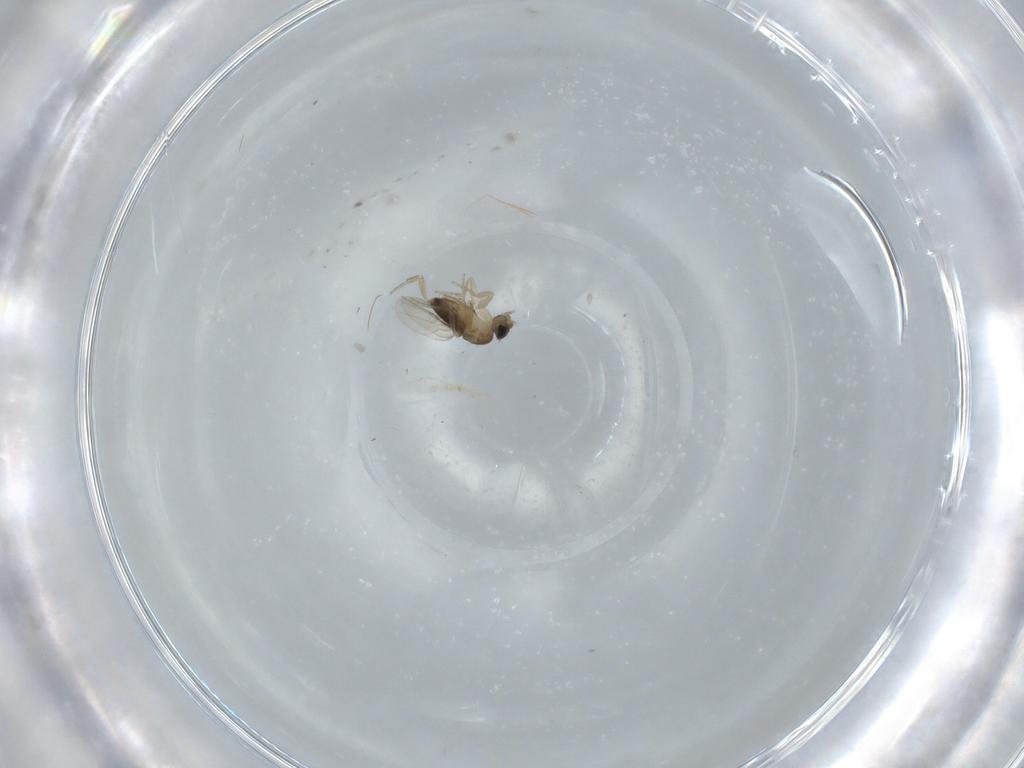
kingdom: Animalia
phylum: Arthropoda
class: Insecta
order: Diptera
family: Phoridae
